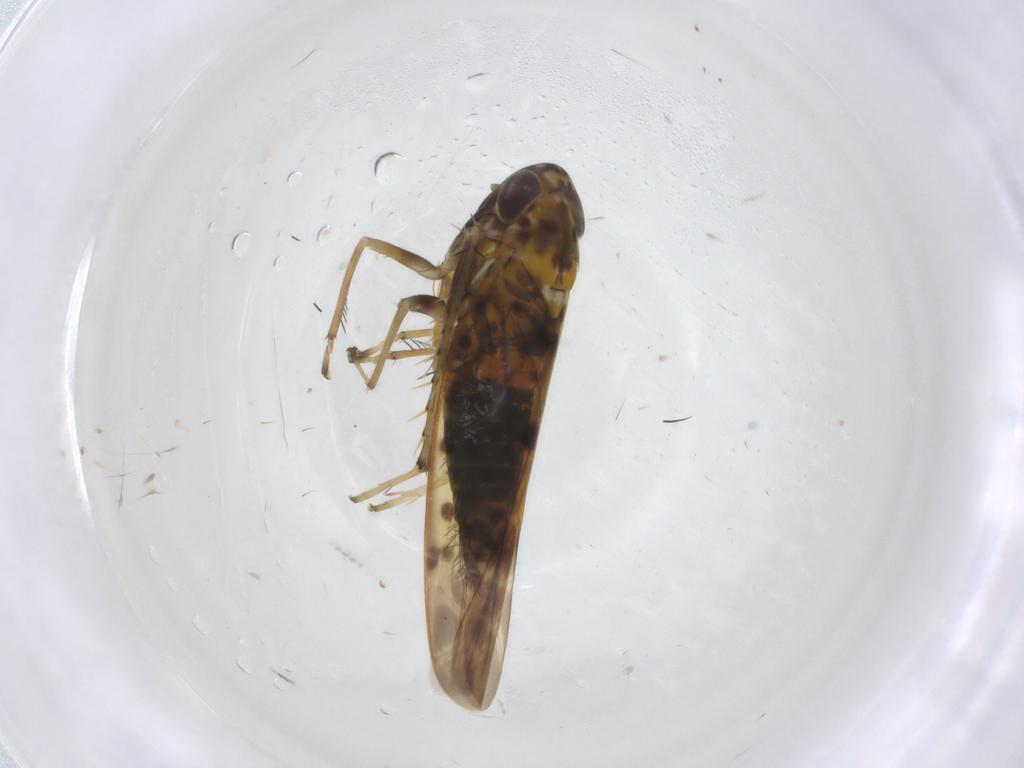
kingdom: Animalia
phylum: Arthropoda
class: Insecta
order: Hemiptera
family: Cicadellidae
